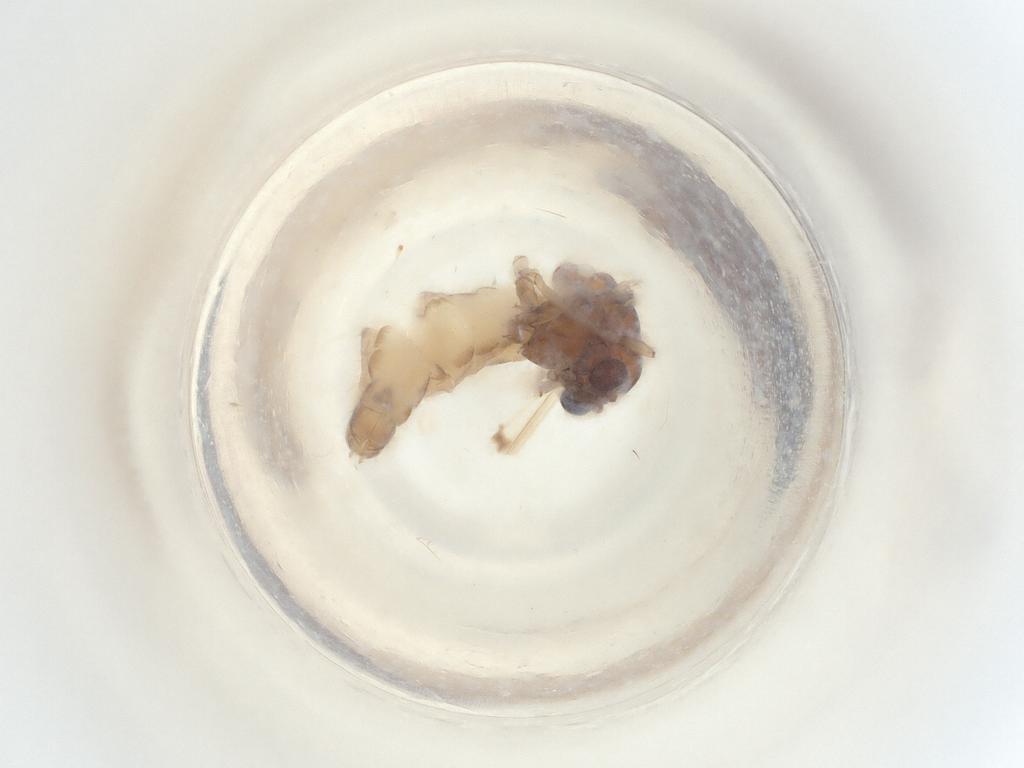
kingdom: Animalia
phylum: Arthropoda
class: Insecta
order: Diptera
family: Chironomidae
